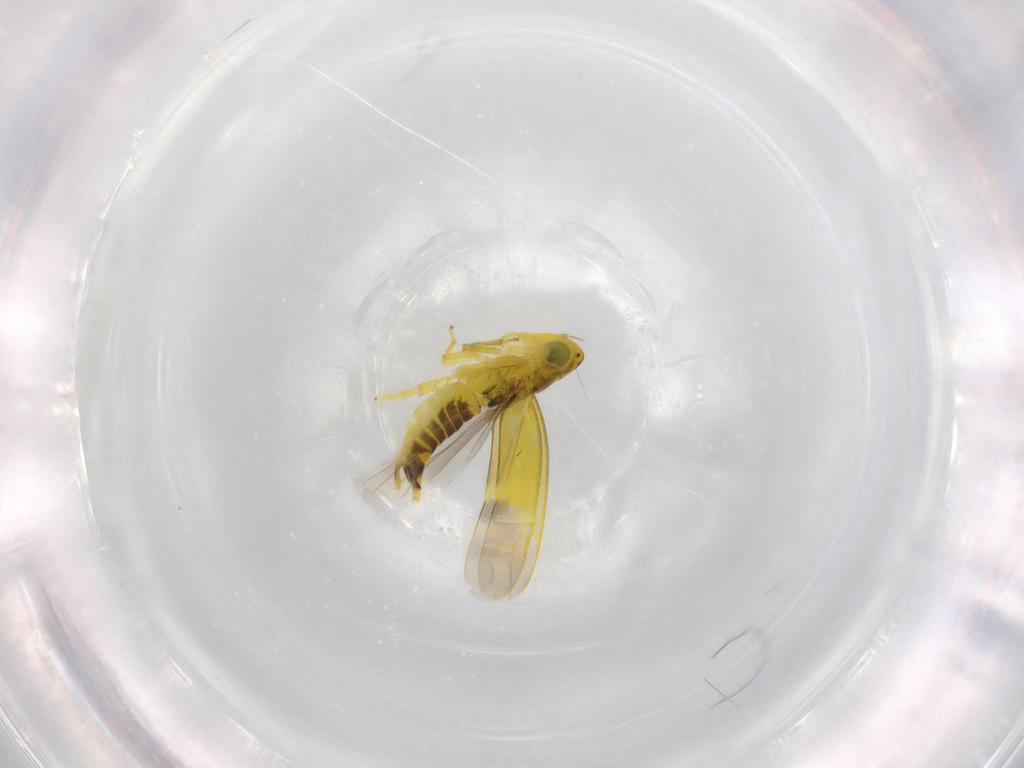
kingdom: Animalia
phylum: Arthropoda
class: Insecta
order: Hemiptera
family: Cicadellidae
